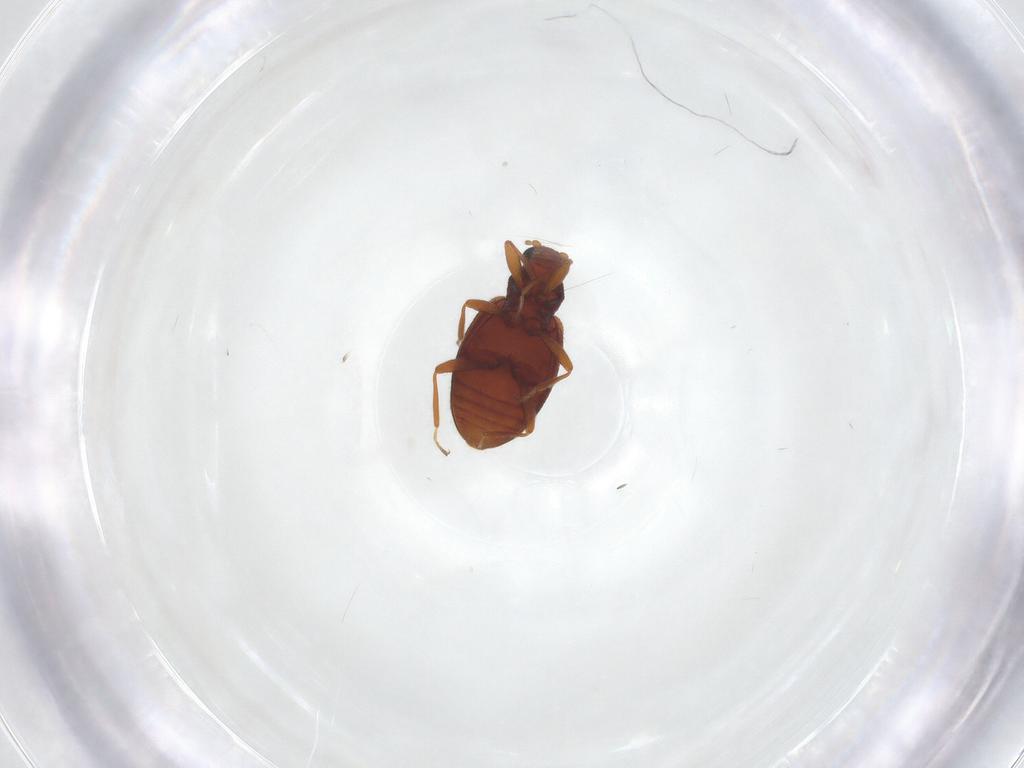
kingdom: Animalia
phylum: Arthropoda
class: Insecta
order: Coleoptera
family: Latridiidae
